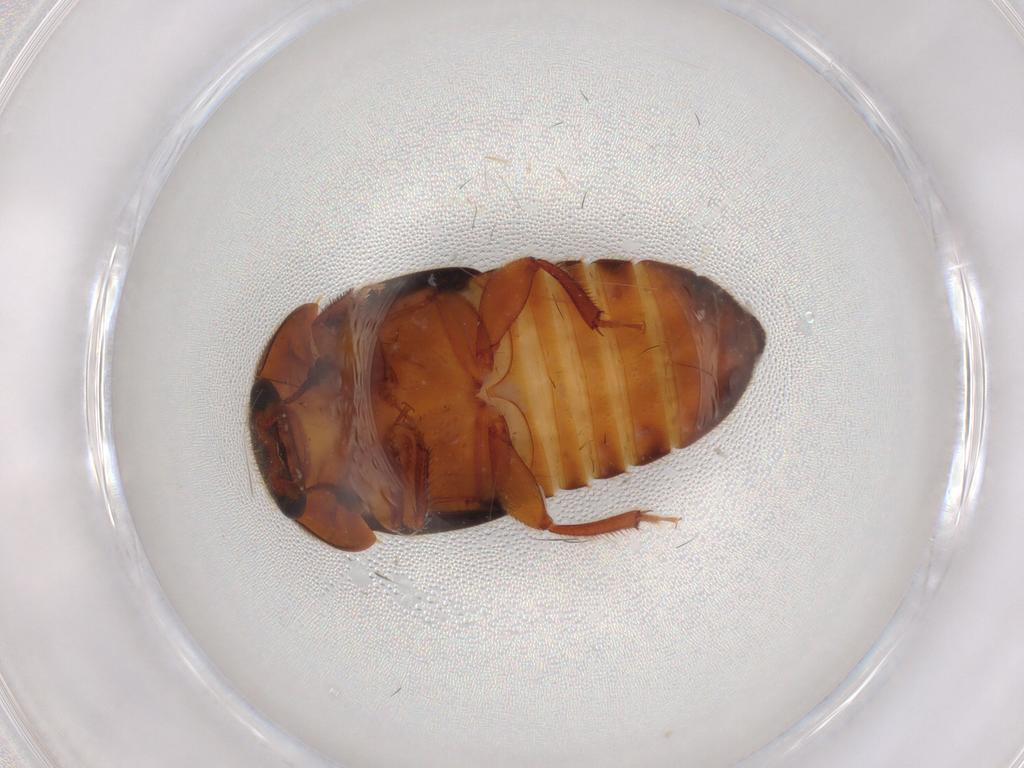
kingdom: Animalia
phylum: Arthropoda
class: Insecta
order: Coleoptera
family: Nitidulidae
